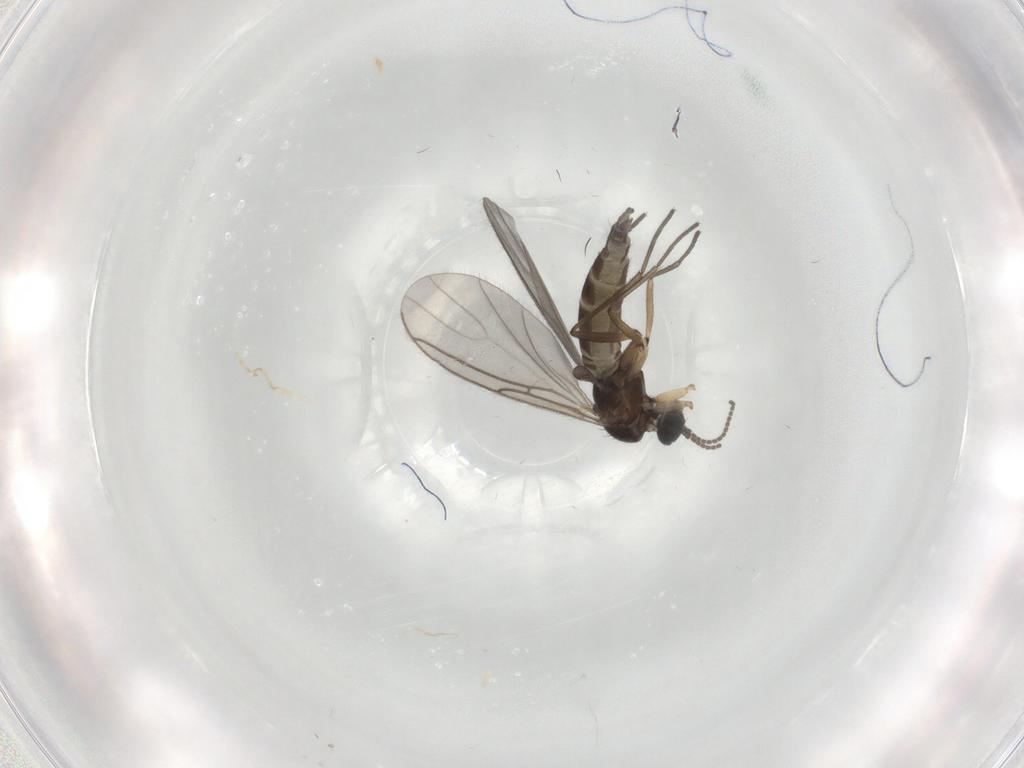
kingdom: Animalia
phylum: Arthropoda
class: Insecta
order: Diptera
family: Sciaridae
